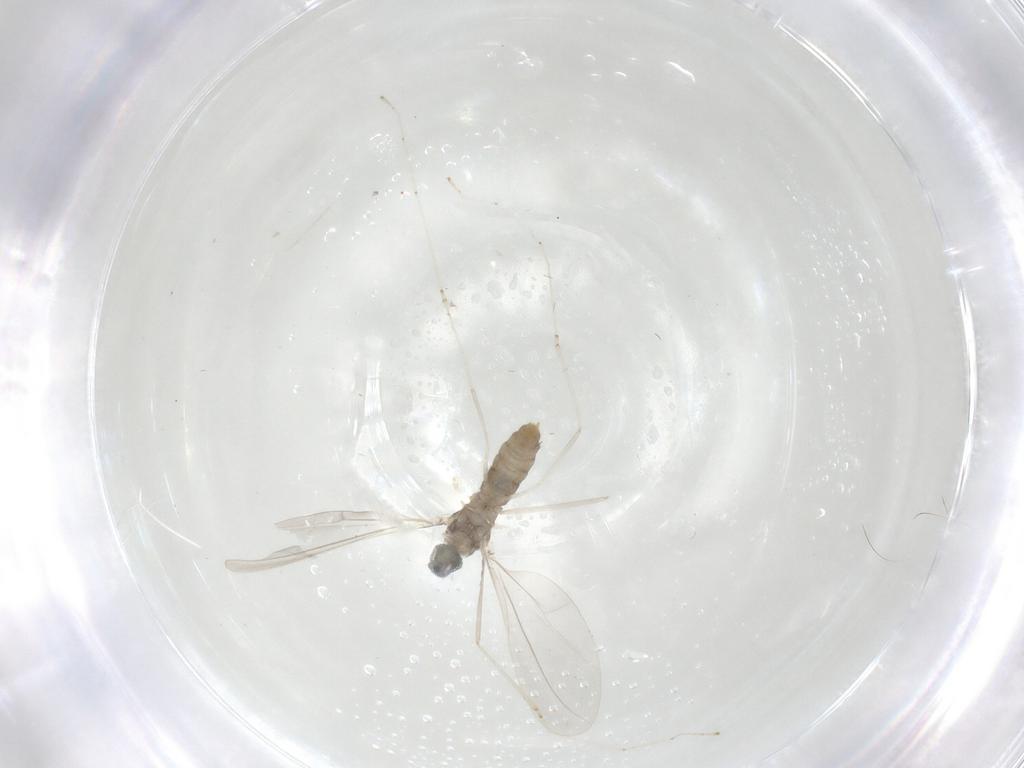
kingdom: Animalia
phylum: Arthropoda
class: Insecta
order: Diptera
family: Cecidomyiidae
